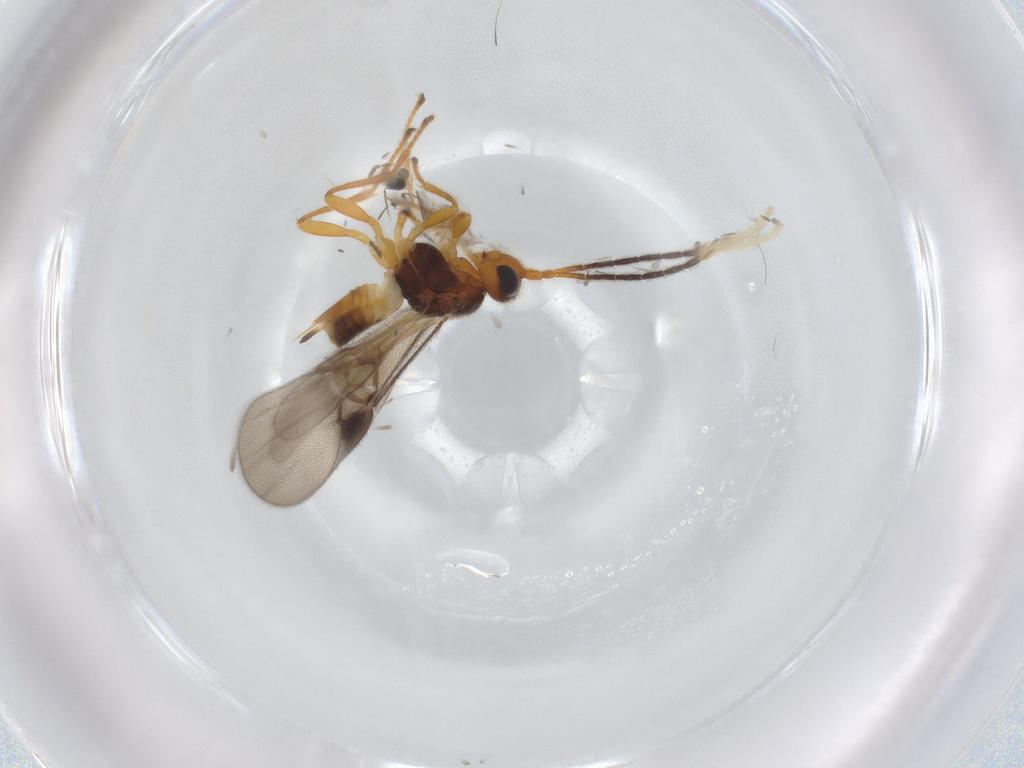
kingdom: Animalia
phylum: Arthropoda
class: Insecta
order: Hymenoptera
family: Braconidae
